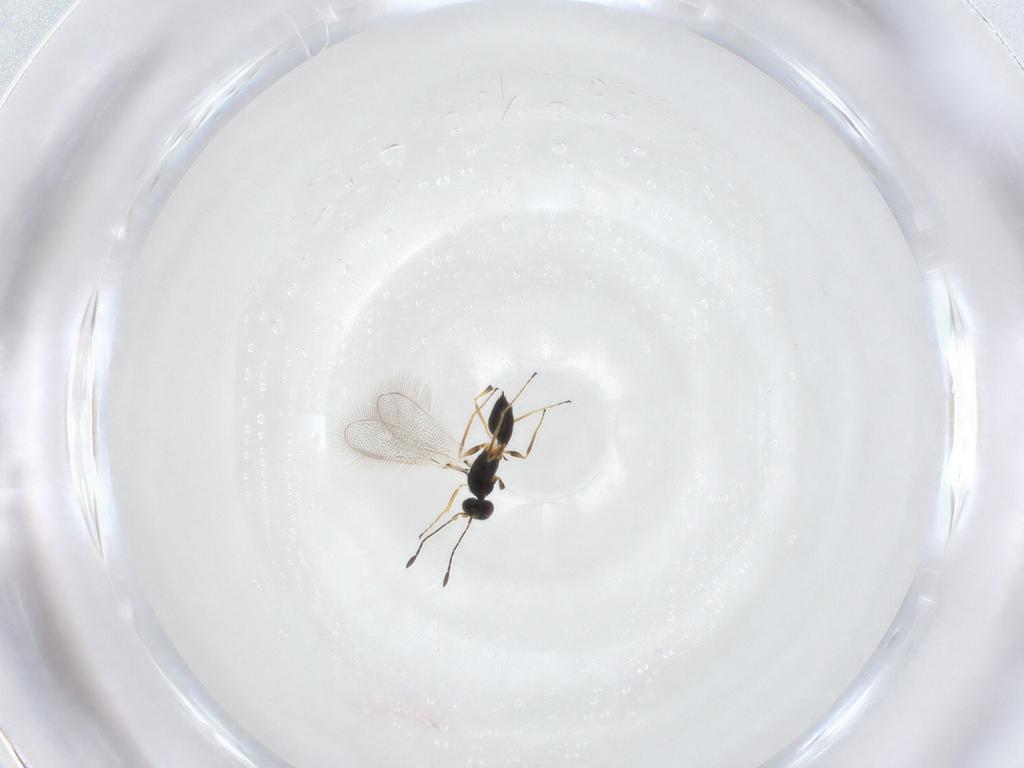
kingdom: Animalia
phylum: Arthropoda
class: Insecta
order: Hymenoptera
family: Mymaridae
